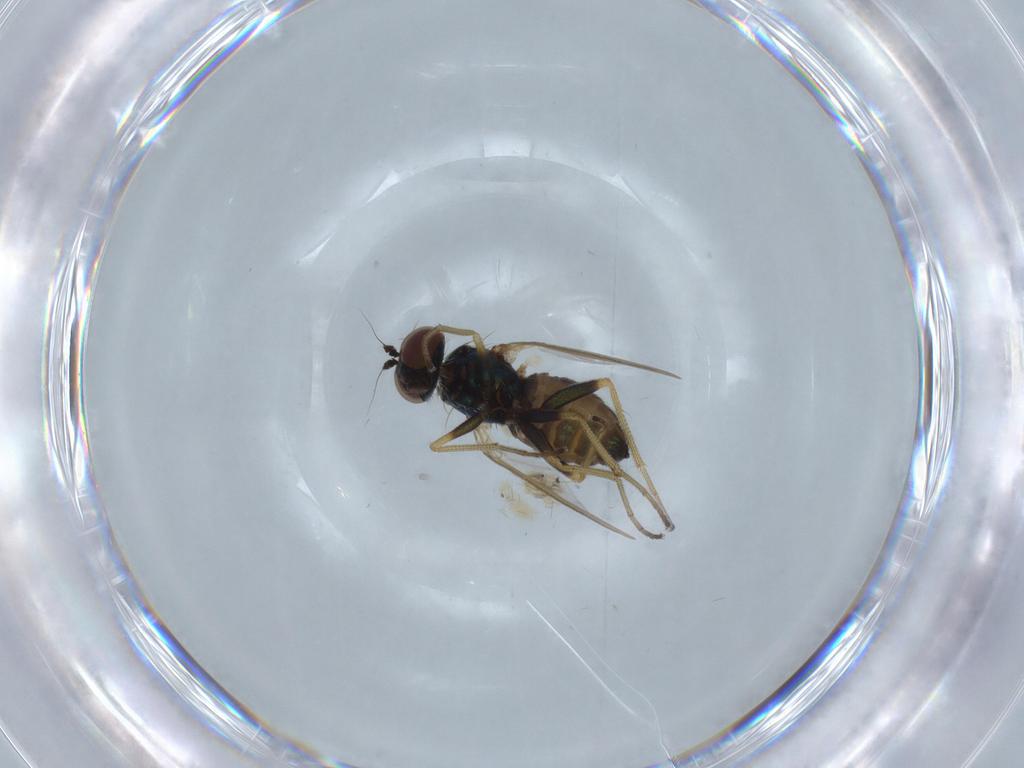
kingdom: Animalia
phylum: Arthropoda
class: Insecta
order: Diptera
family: Dolichopodidae
